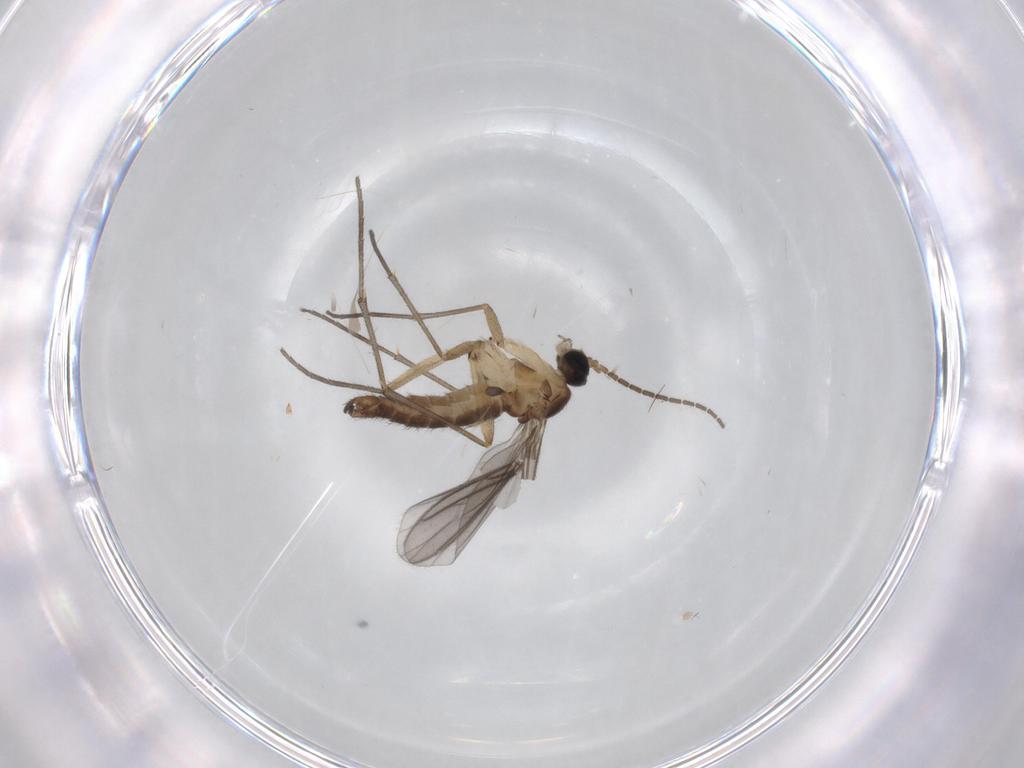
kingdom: Animalia
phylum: Arthropoda
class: Insecta
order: Diptera
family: Sciaridae
